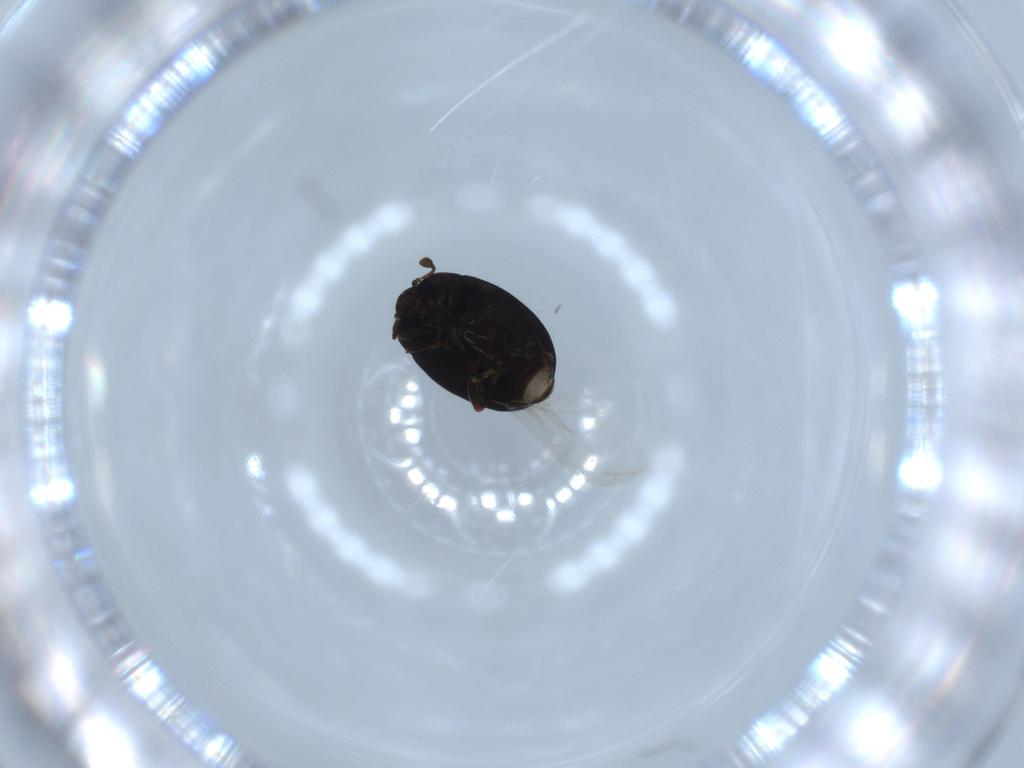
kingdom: Animalia
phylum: Arthropoda
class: Insecta
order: Coleoptera
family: Discolomatidae
